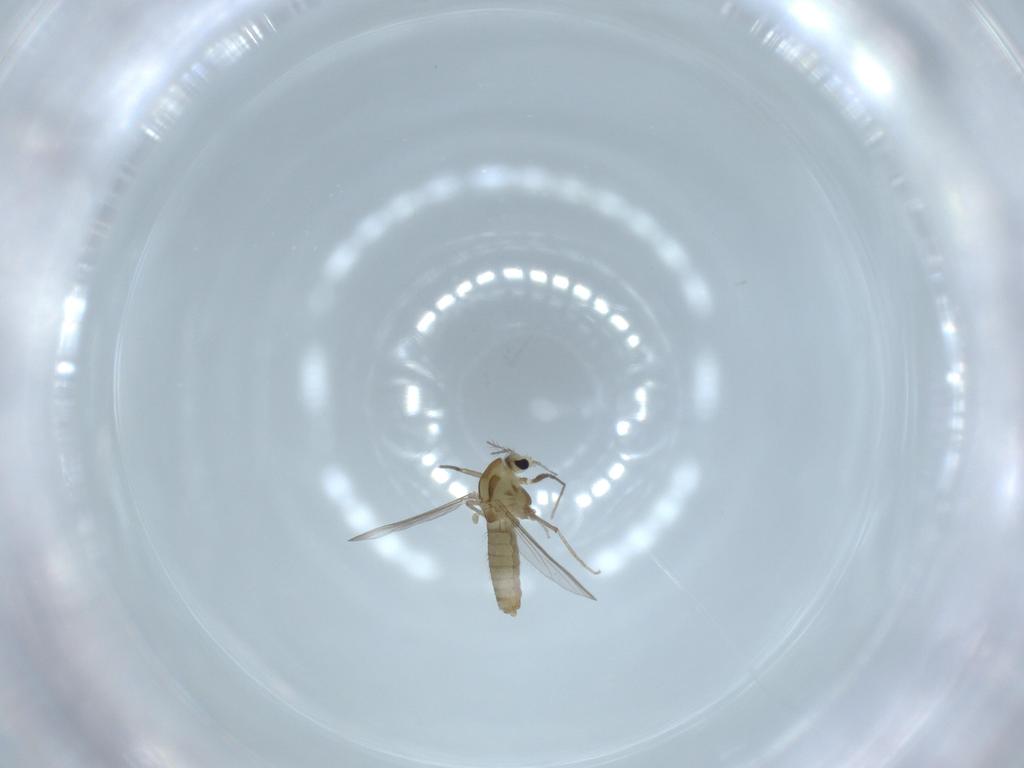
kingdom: Animalia
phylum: Arthropoda
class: Insecta
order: Diptera
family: Chironomidae
